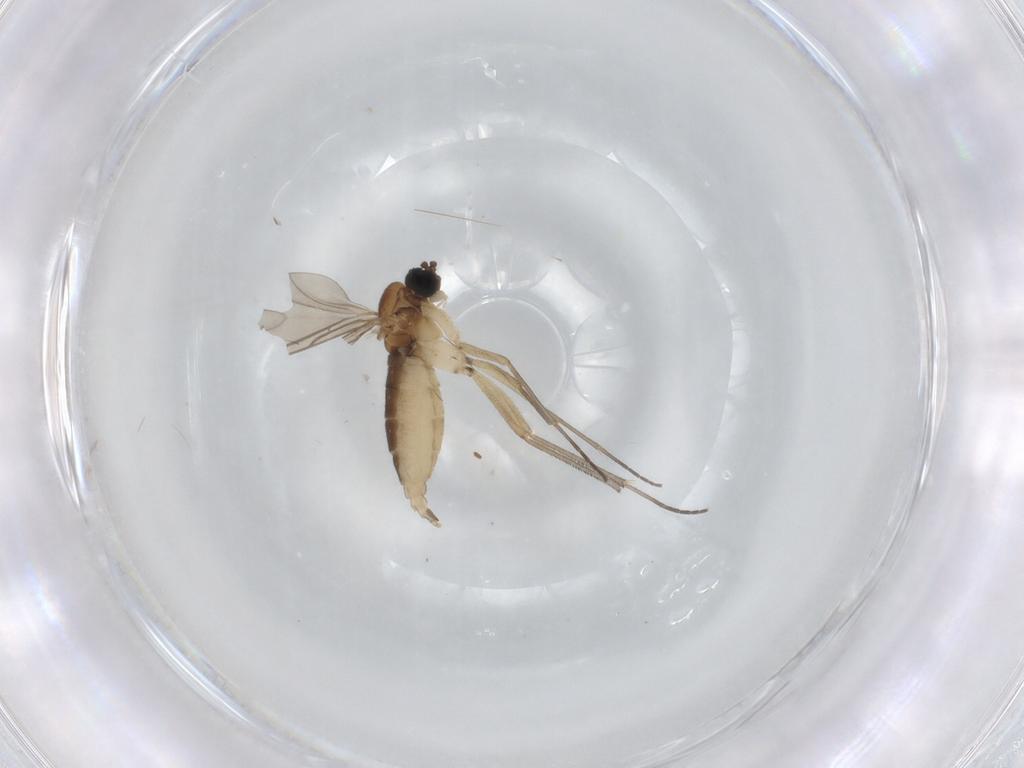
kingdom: Animalia
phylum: Arthropoda
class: Insecta
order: Diptera
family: Sciaridae
